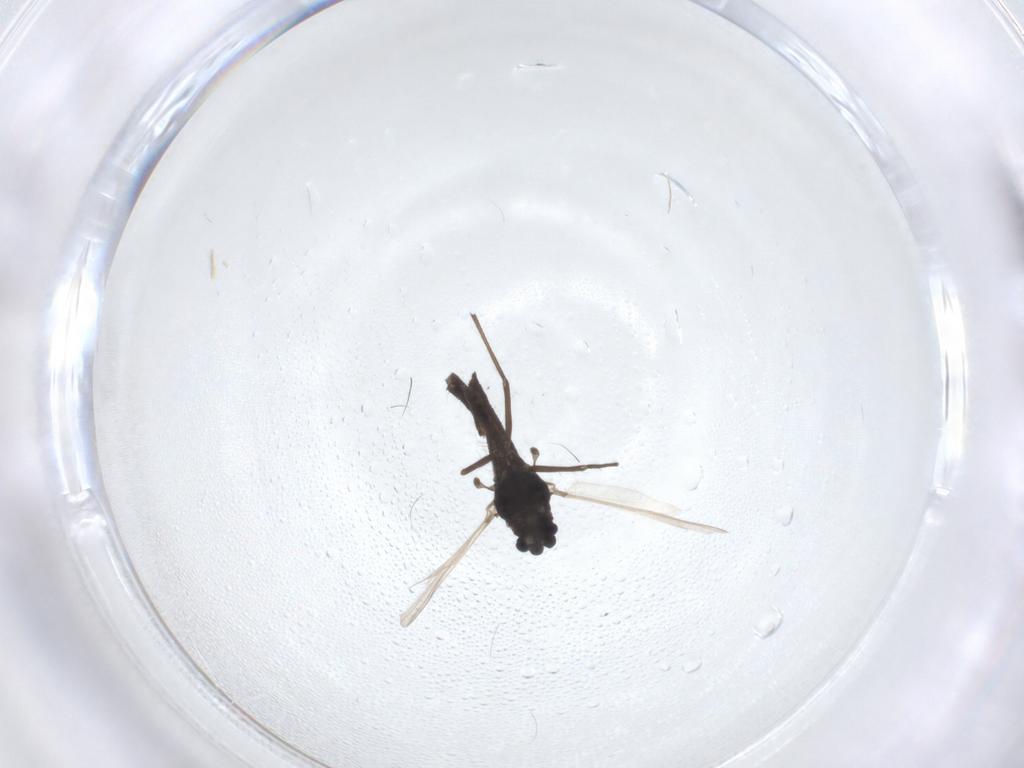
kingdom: Animalia
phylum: Arthropoda
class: Insecta
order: Diptera
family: Chironomidae
